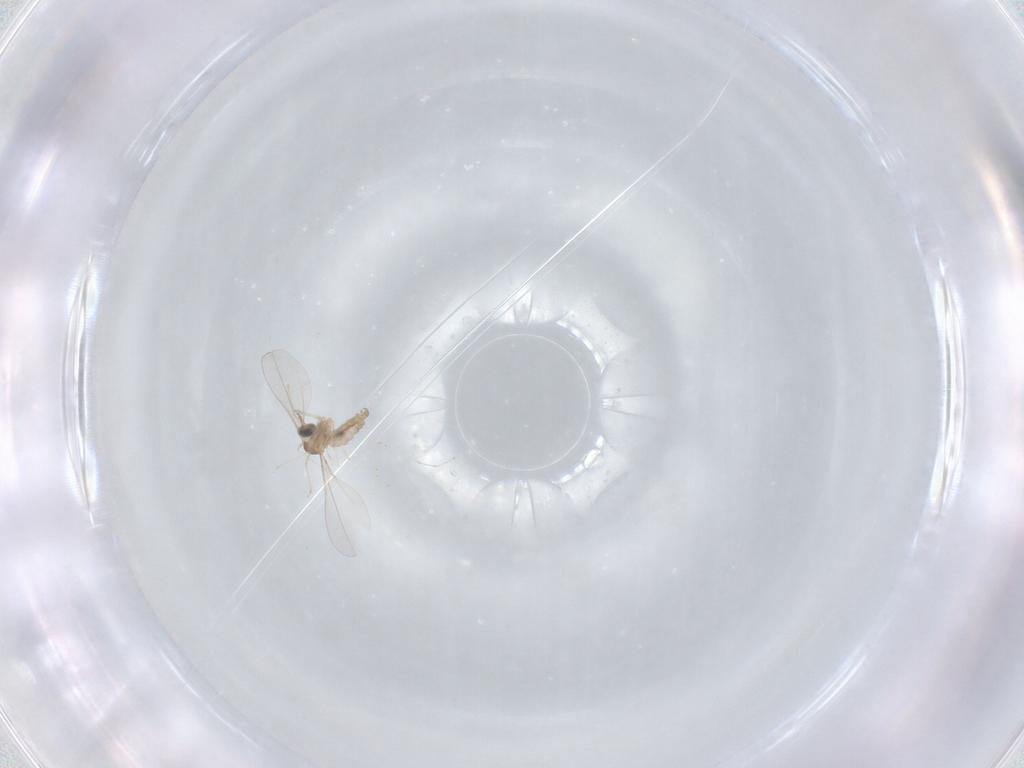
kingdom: Animalia
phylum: Arthropoda
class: Insecta
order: Diptera
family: Cecidomyiidae
